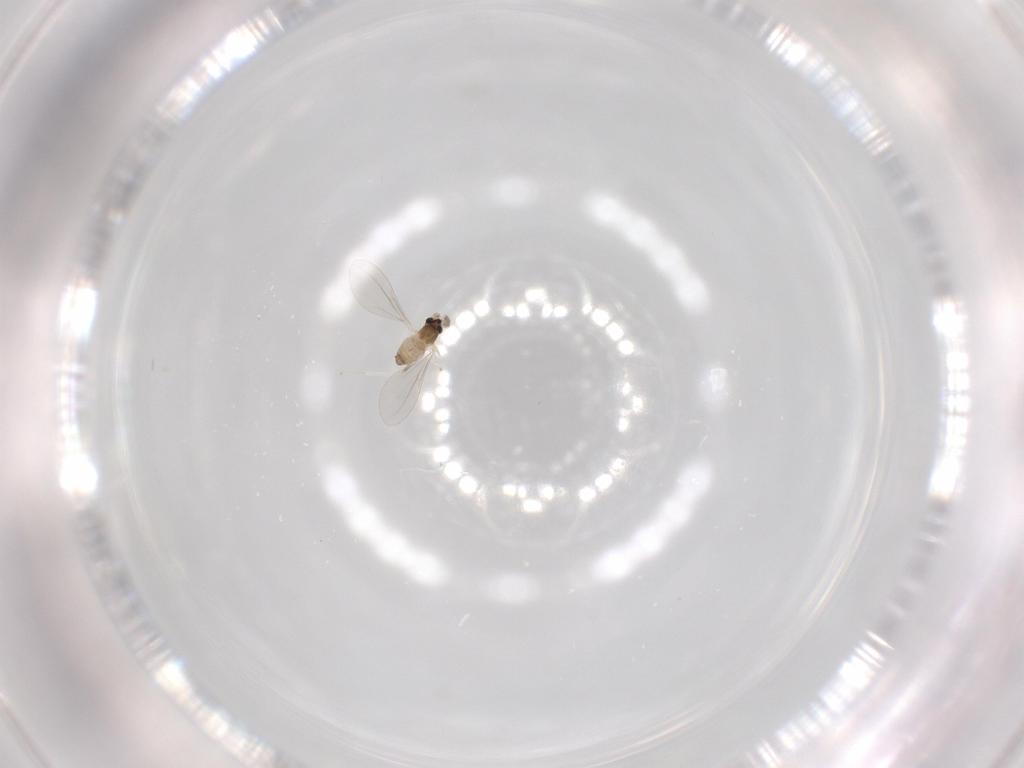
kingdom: Animalia
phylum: Arthropoda
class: Insecta
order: Diptera
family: Cecidomyiidae
